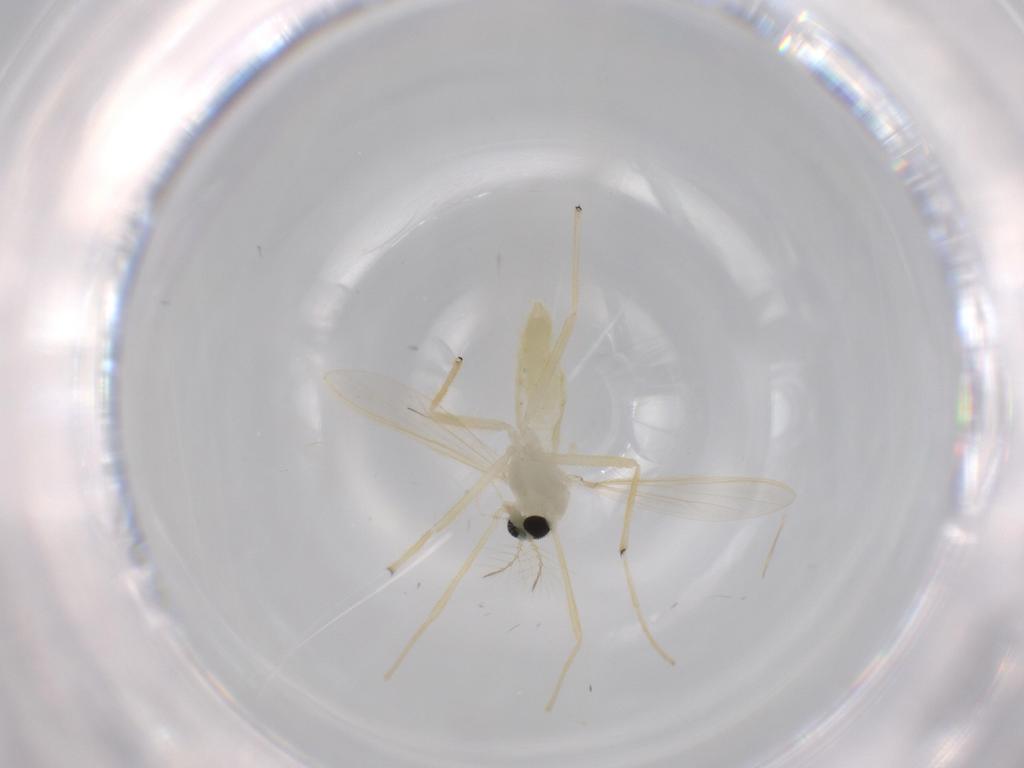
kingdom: Animalia
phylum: Arthropoda
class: Insecta
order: Diptera
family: Chironomidae
